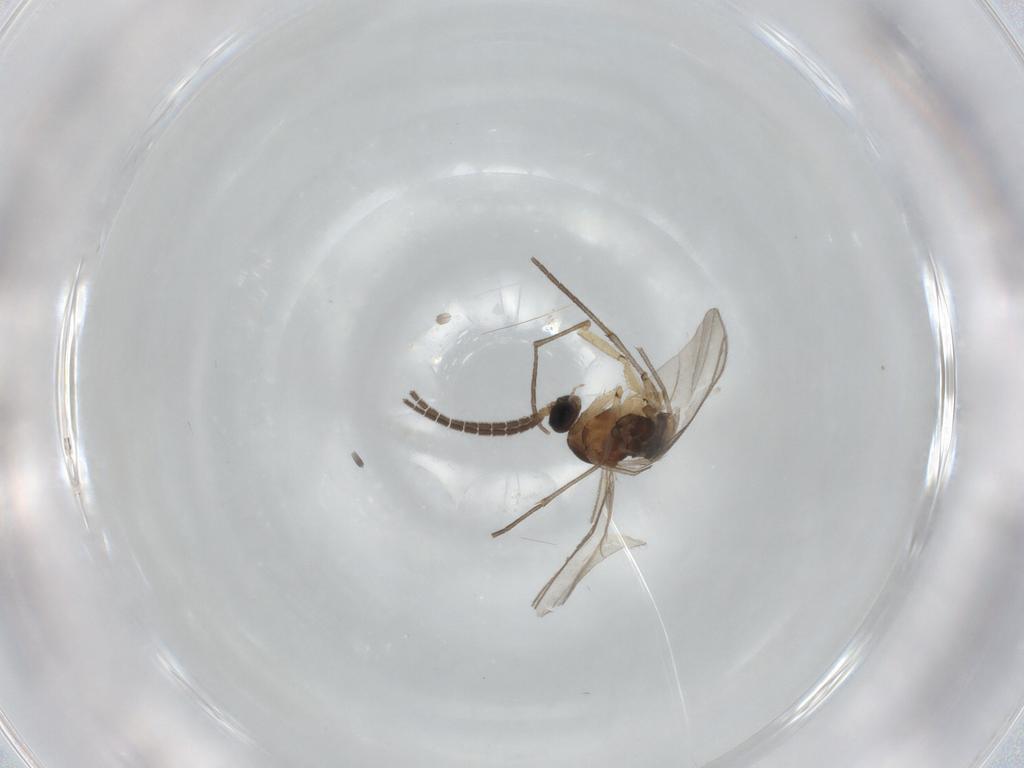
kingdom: Animalia
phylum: Arthropoda
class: Insecta
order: Diptera
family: Sciaridae
